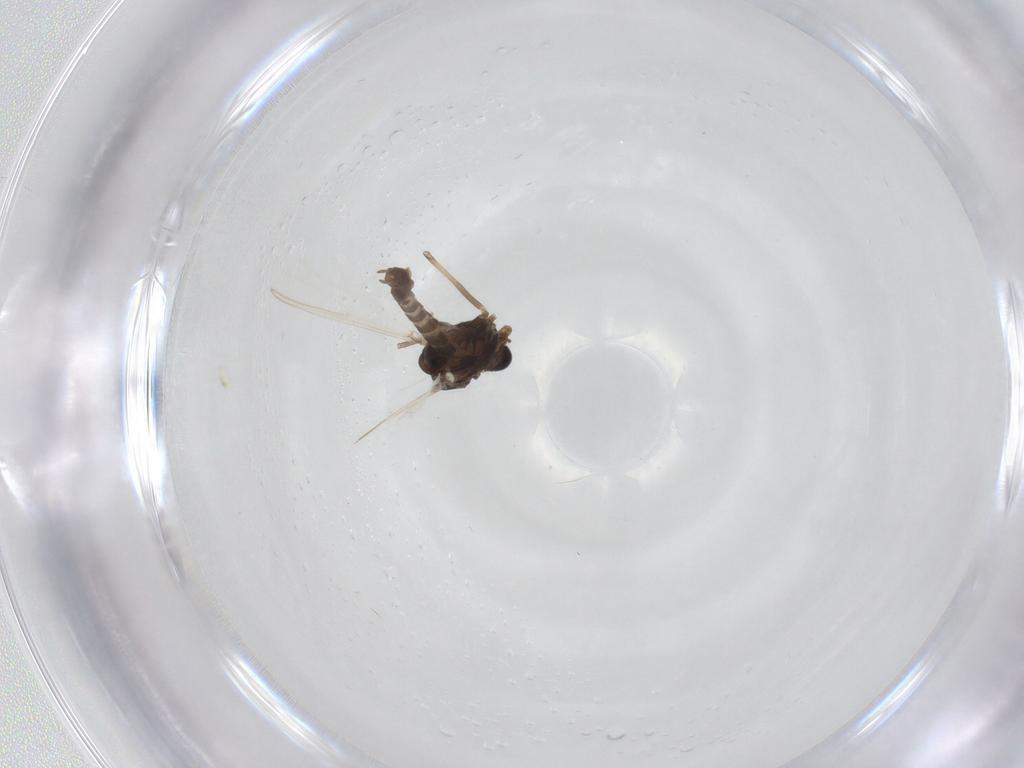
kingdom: Animalia
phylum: Arthropoda
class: Insecta
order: Diptera
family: Chironomidae
